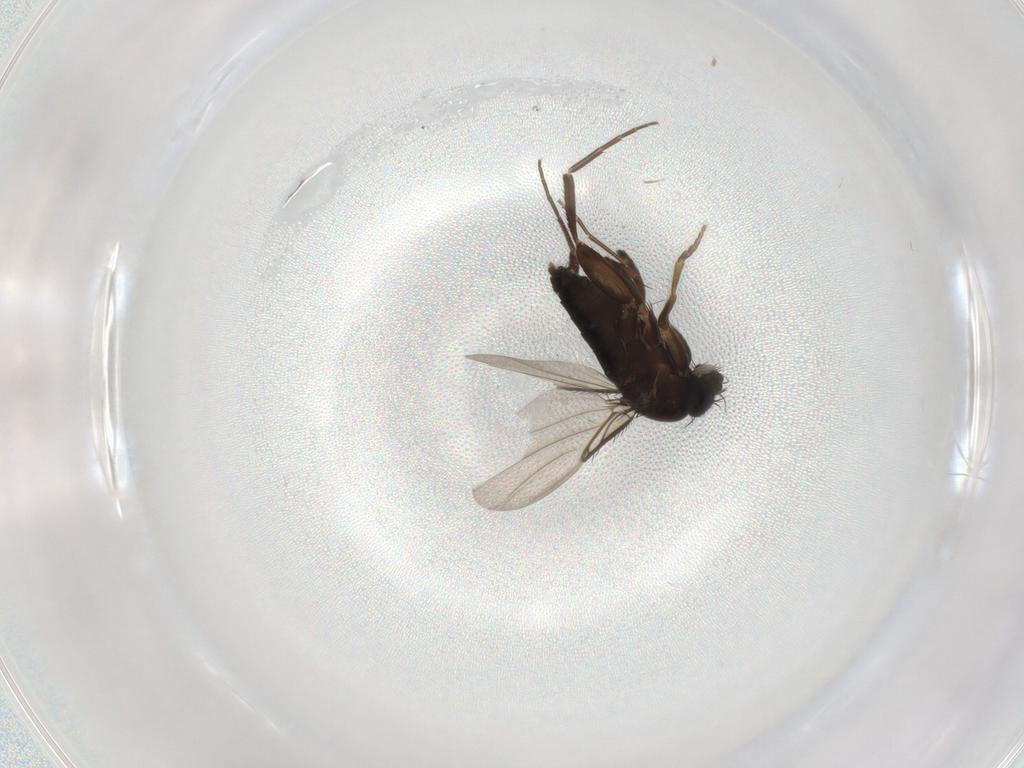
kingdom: Animalia
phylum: Arthropoda
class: Insecta
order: Diptera
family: Phoridae
